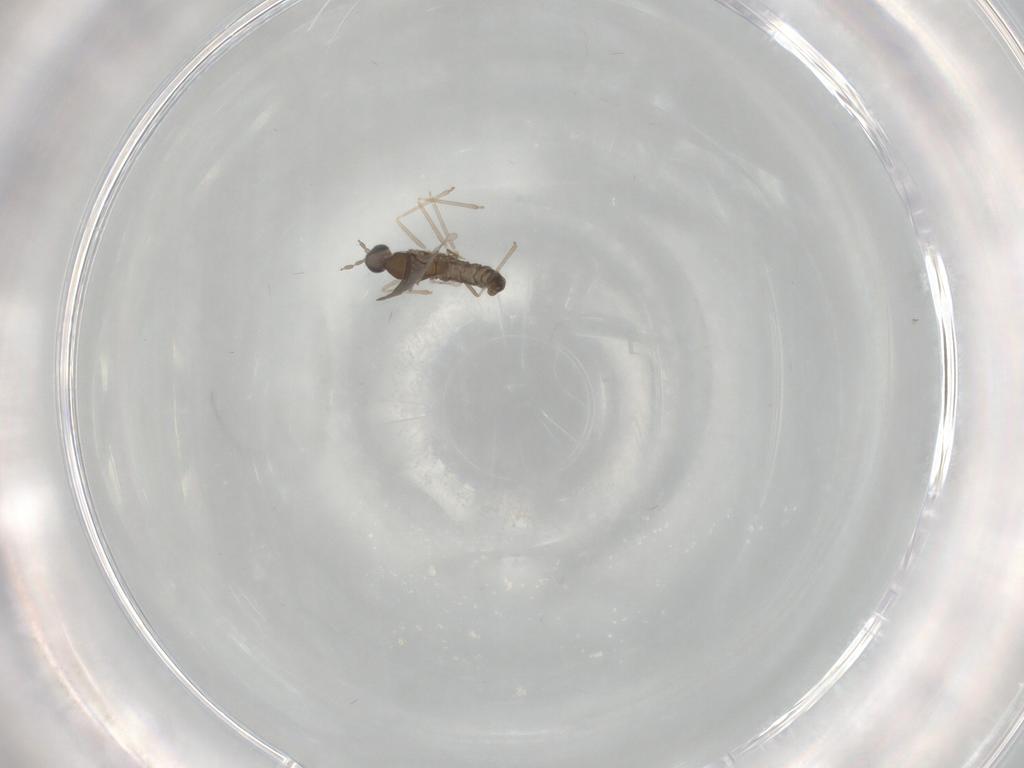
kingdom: Animalia
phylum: Arthropoda
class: Insecta
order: Diptera
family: Cecidomyiidae
